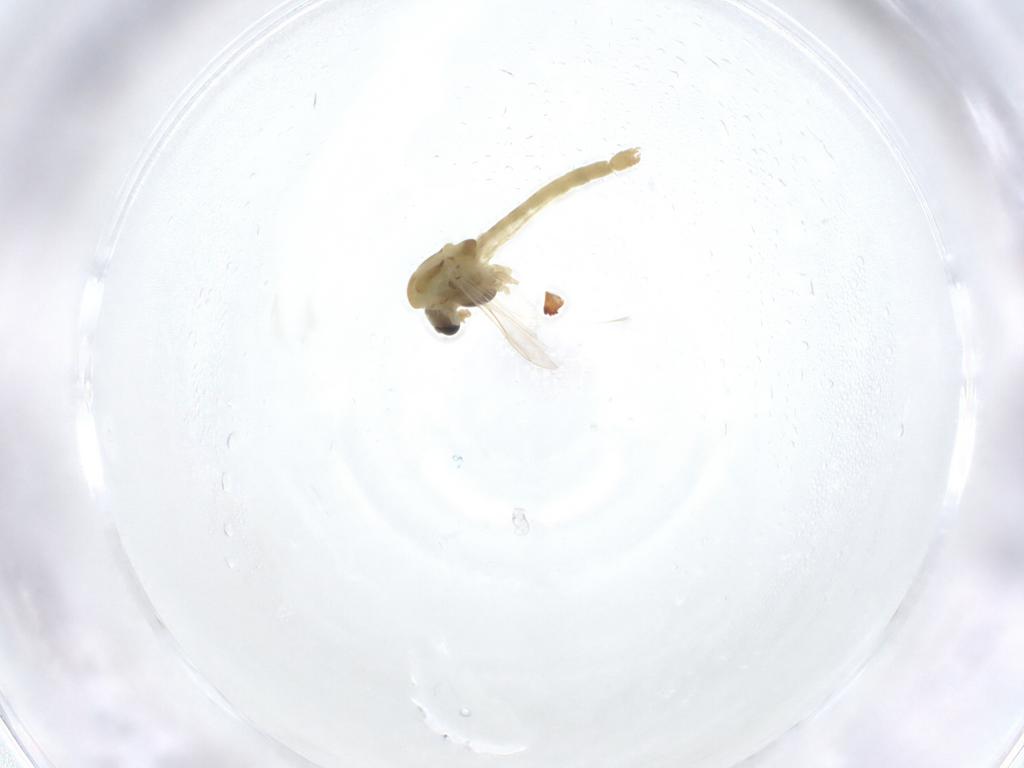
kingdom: Animalia
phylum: Arthropoda
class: Insecta
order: Diptera
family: Chironomidae
